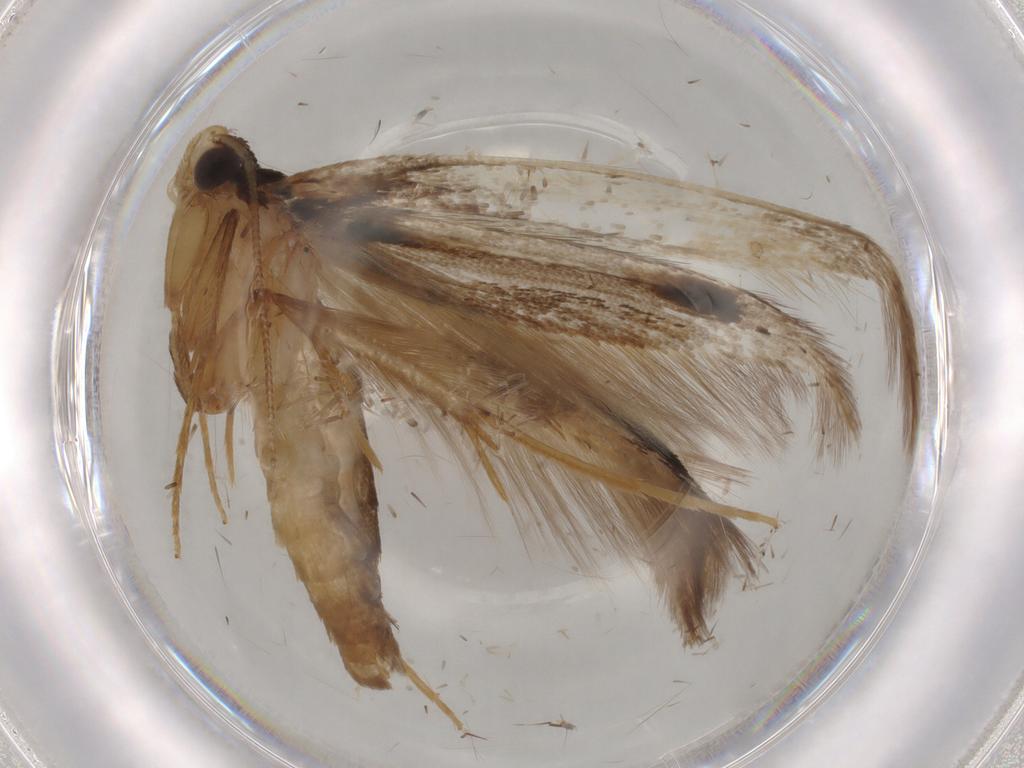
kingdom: Animalia
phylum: Arthropoda
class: Insecta
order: Lepidoptera
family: Tineidae
